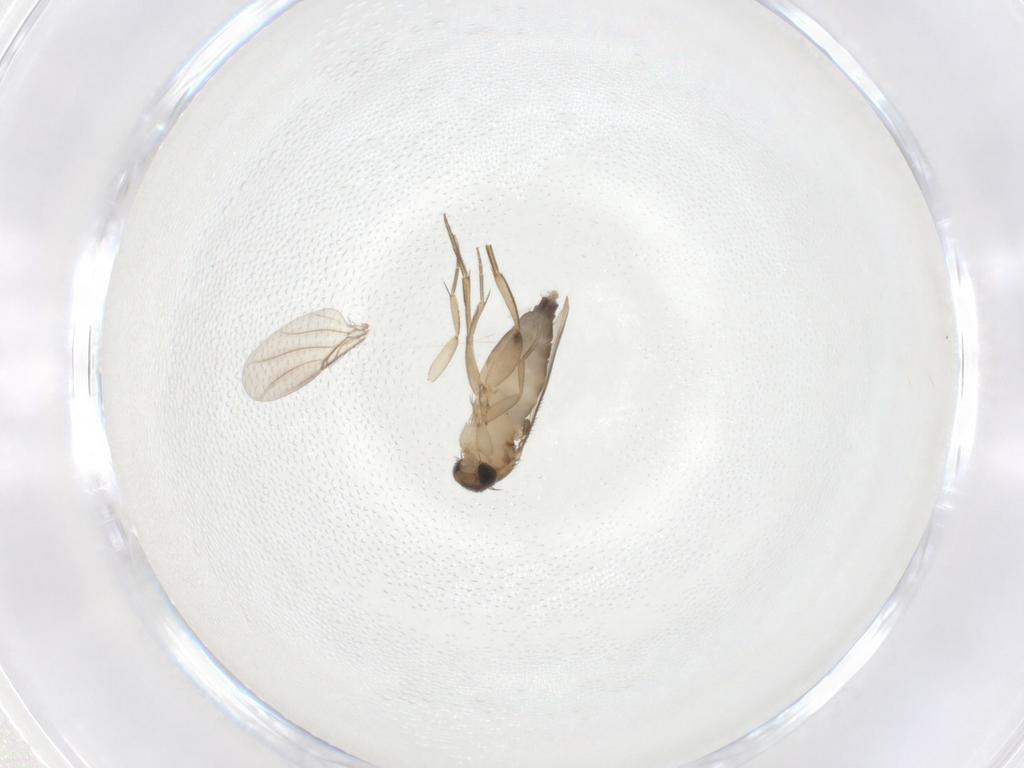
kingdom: Animalia
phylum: Arthropoda
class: Insecta
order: Diptera
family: Phoridae
